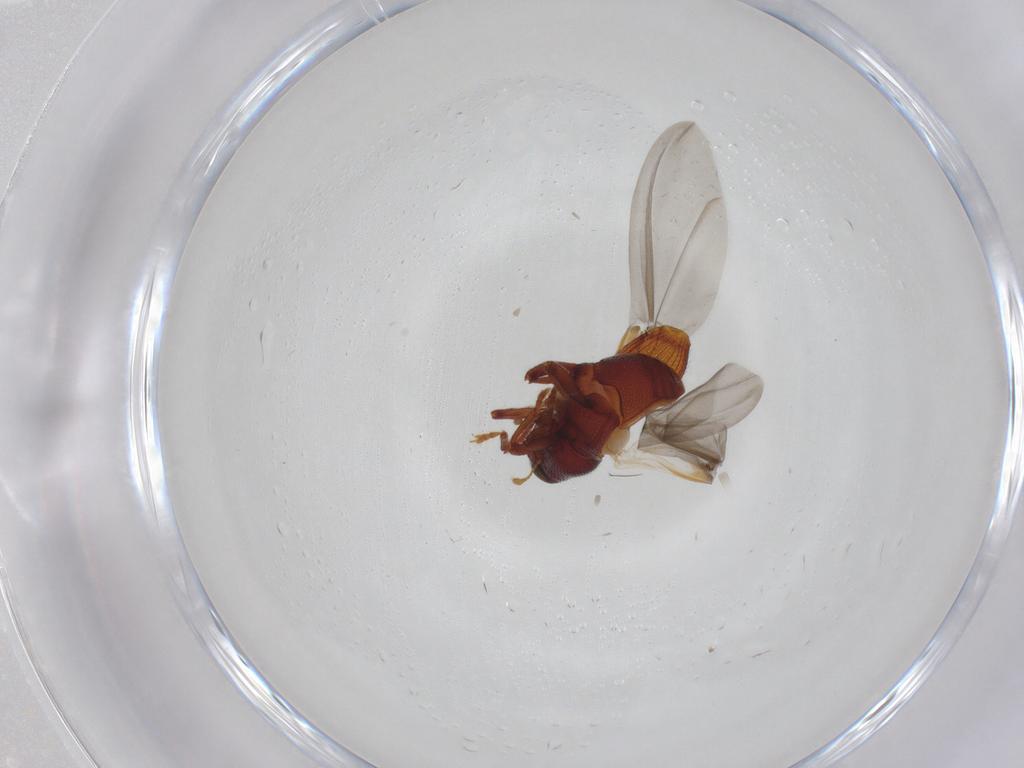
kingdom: Animalia
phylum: Arthropoda
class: Insecta
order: Coleoptera
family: Curculionidae
